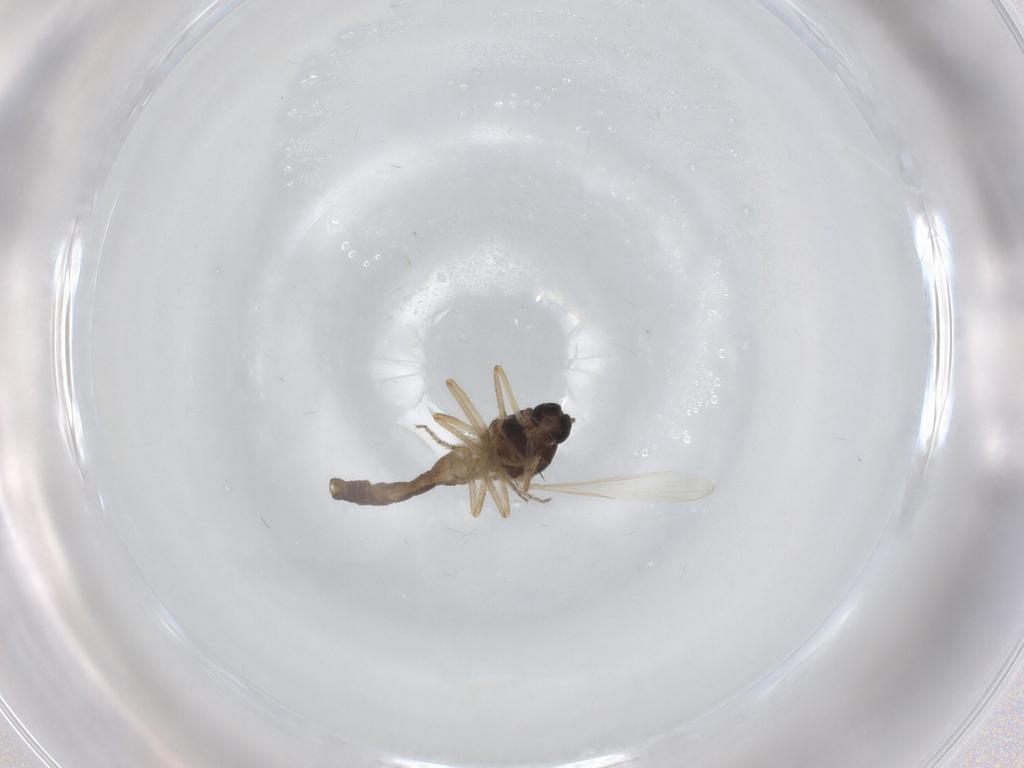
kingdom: Animalia
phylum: Arthropoda
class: Insecta
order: Diptera
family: Ceratopogonidae
